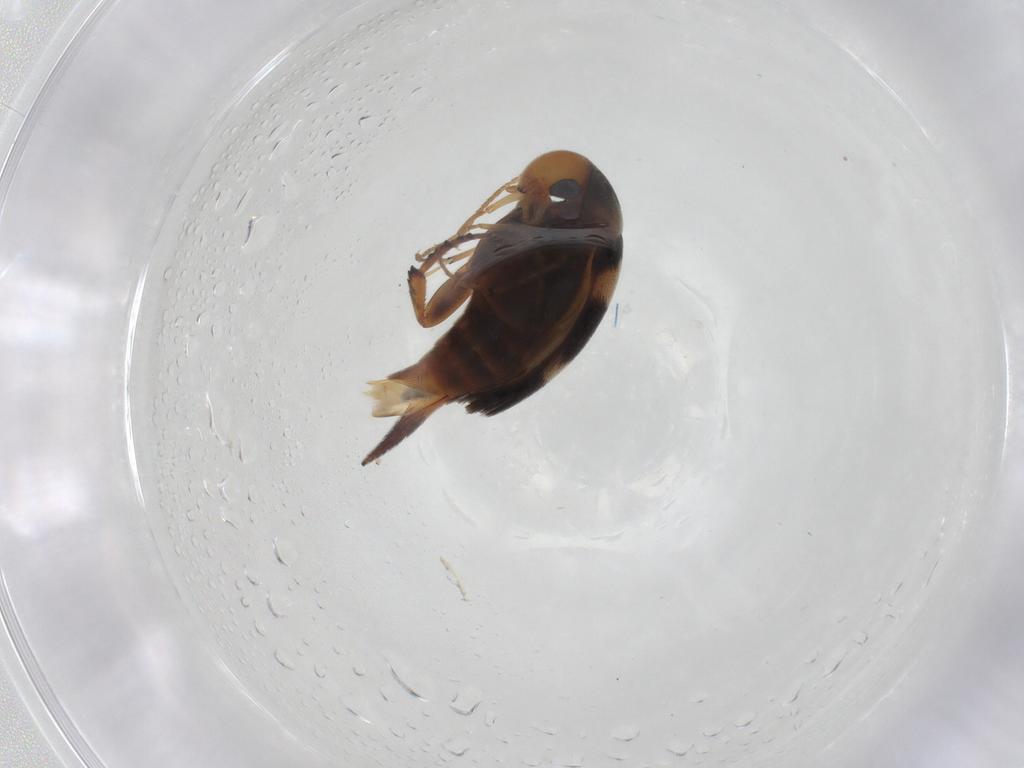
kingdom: Animalia
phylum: Arthropoda
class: Insecta
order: Coleoptera
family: Mordellidae
